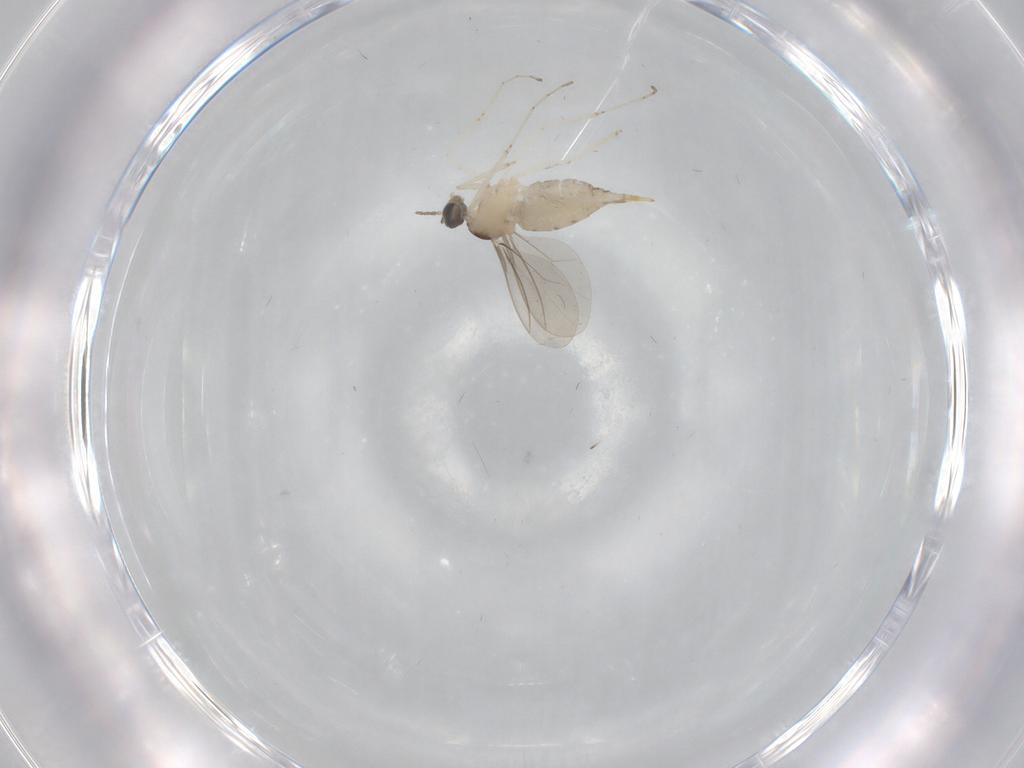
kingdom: Animalia
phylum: Arthropoda
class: Insecta
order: Diptera
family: Cecidomyiidae
